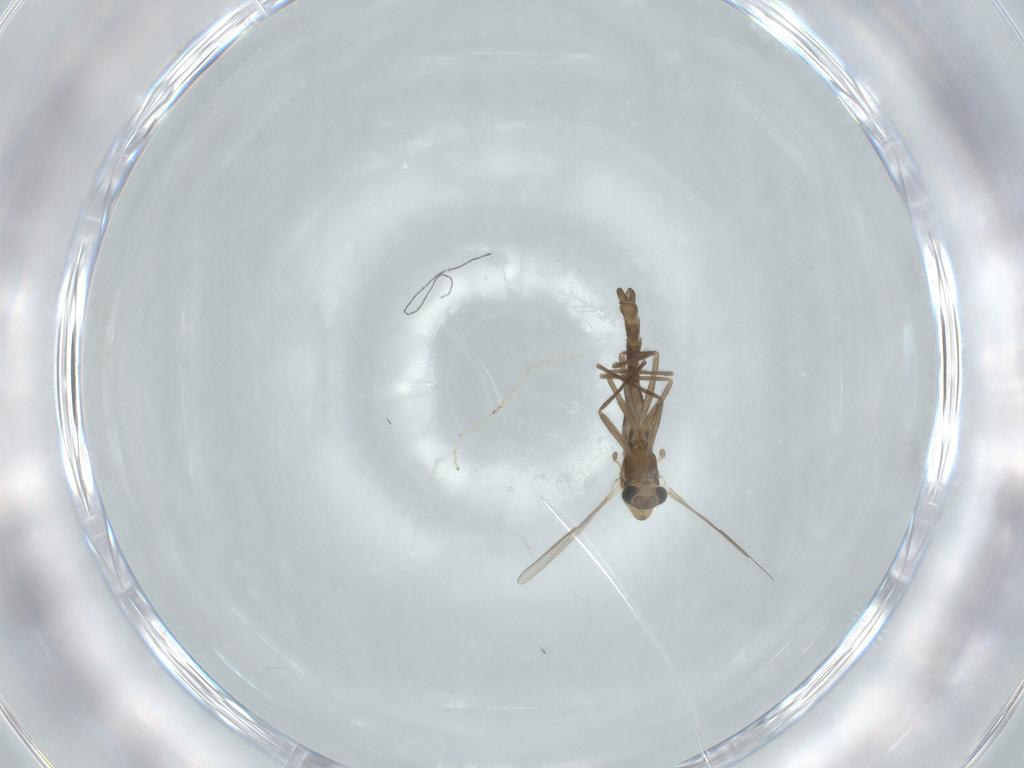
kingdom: Animalia
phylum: Arthropoda
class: Insecta
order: Diptera
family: Chironomidae
